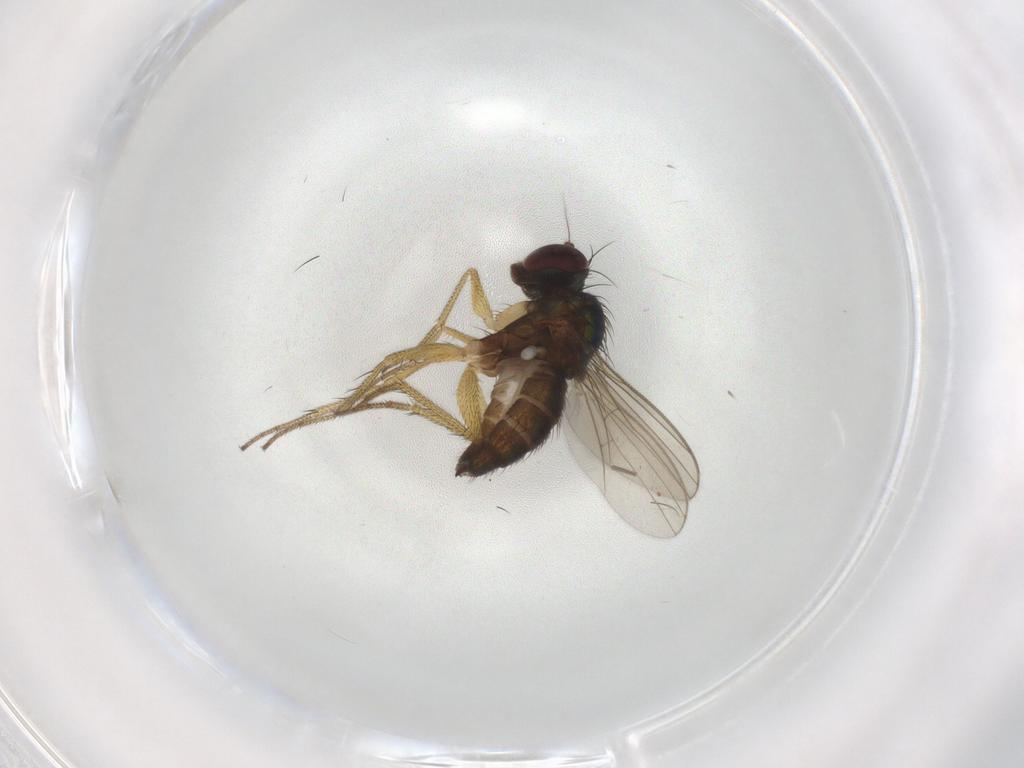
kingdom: Animalia
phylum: Arthropoda
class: Insecta
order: Diptera
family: Dolichopodidae
